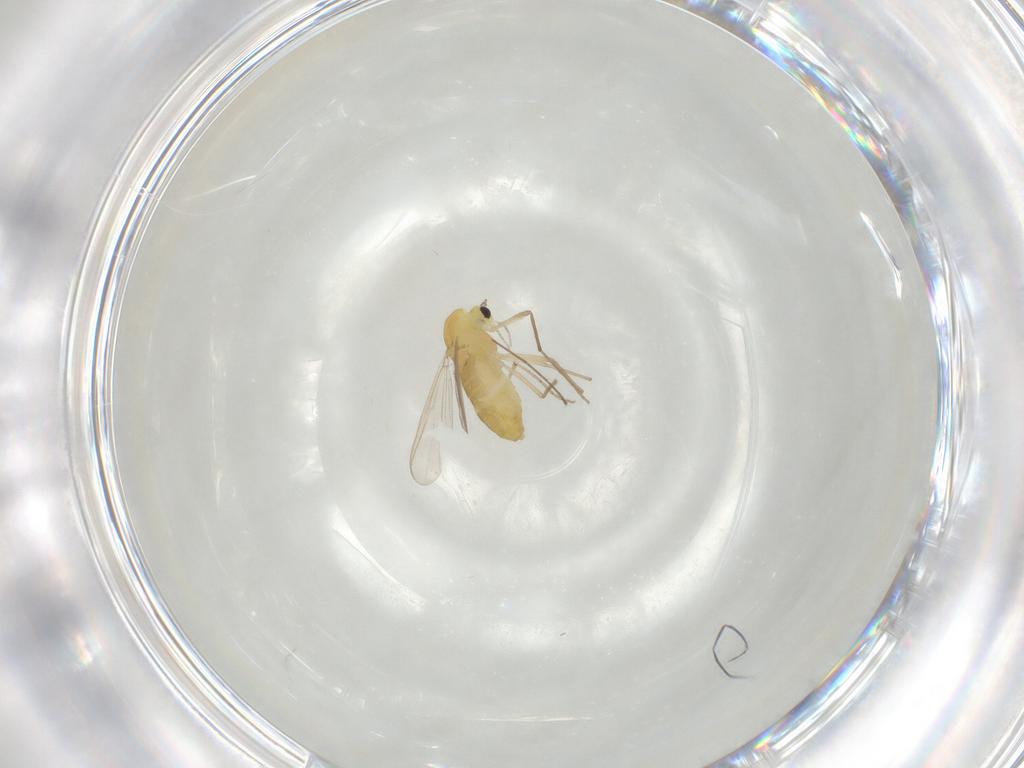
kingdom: Animalia
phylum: Arthropoda
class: Insecta
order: Diptera
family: Chironomidae
